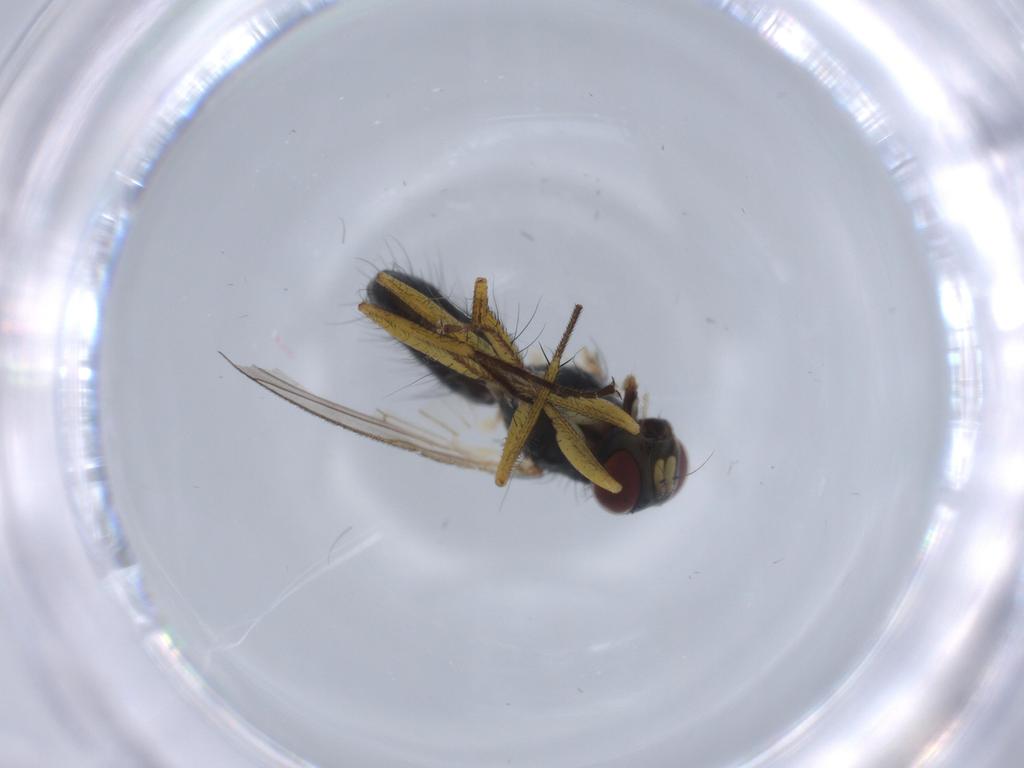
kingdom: Animalia
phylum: Arthropoda
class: Insecta
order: Diptera
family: Muscidae
